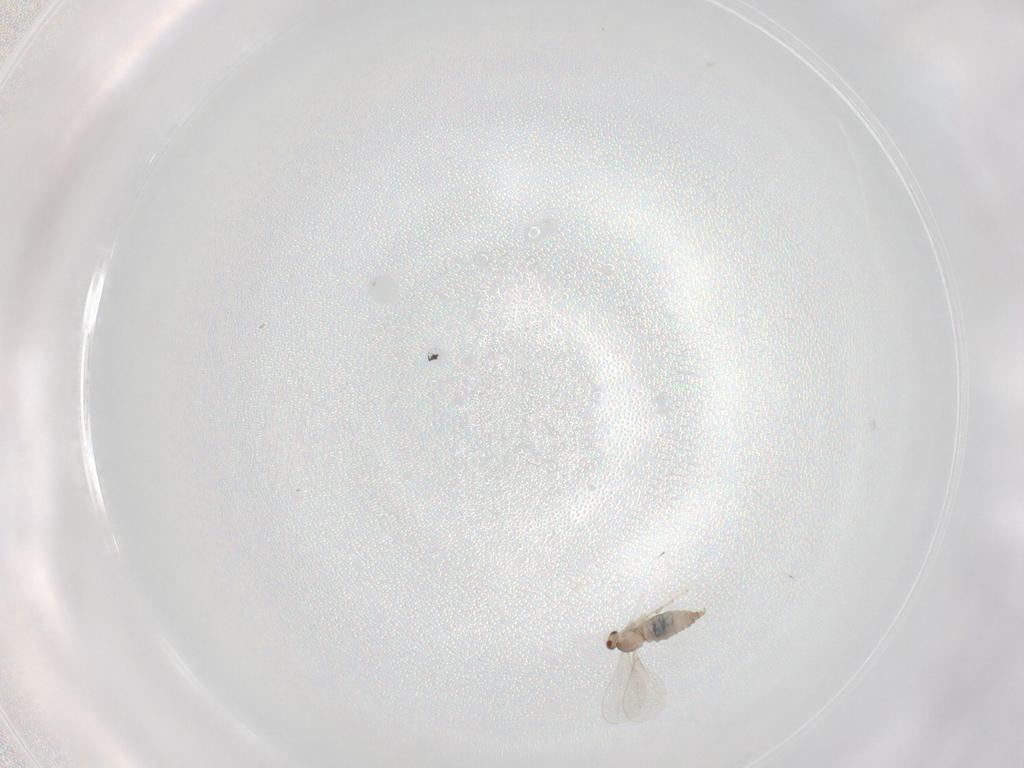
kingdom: Animalia
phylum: Arthropoda
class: Insecta
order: Diptera
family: Cecidomyiidae
